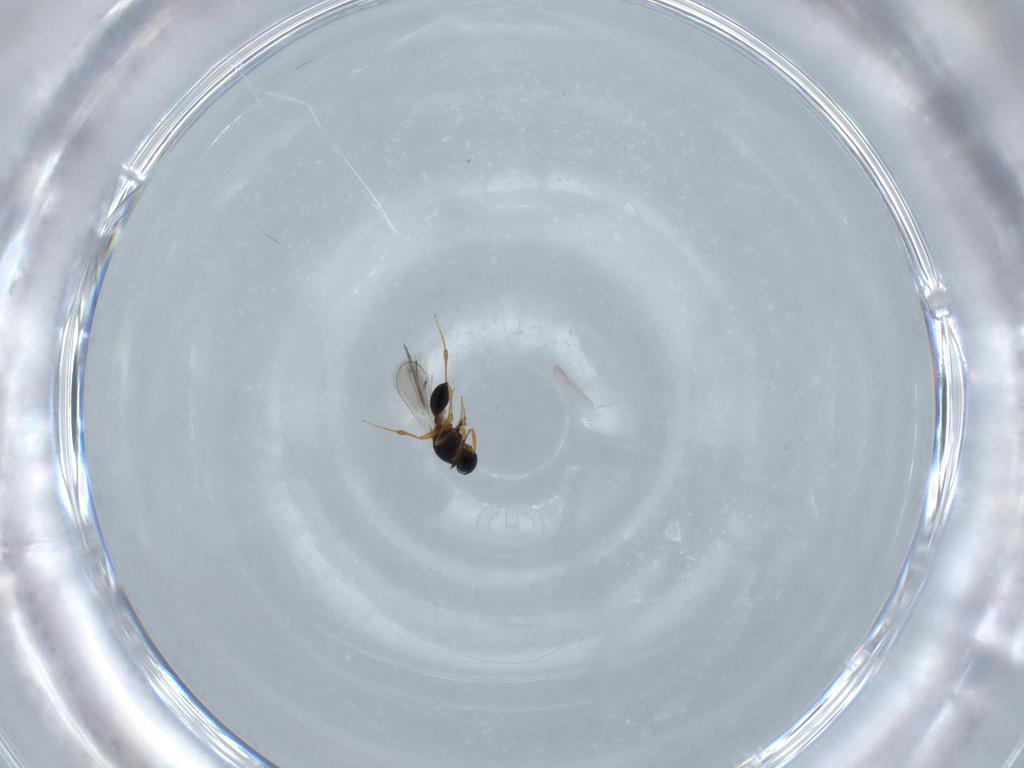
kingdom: Animalia
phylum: Arthropoda
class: Insecta
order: Hymenoptera
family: Platygastridae
